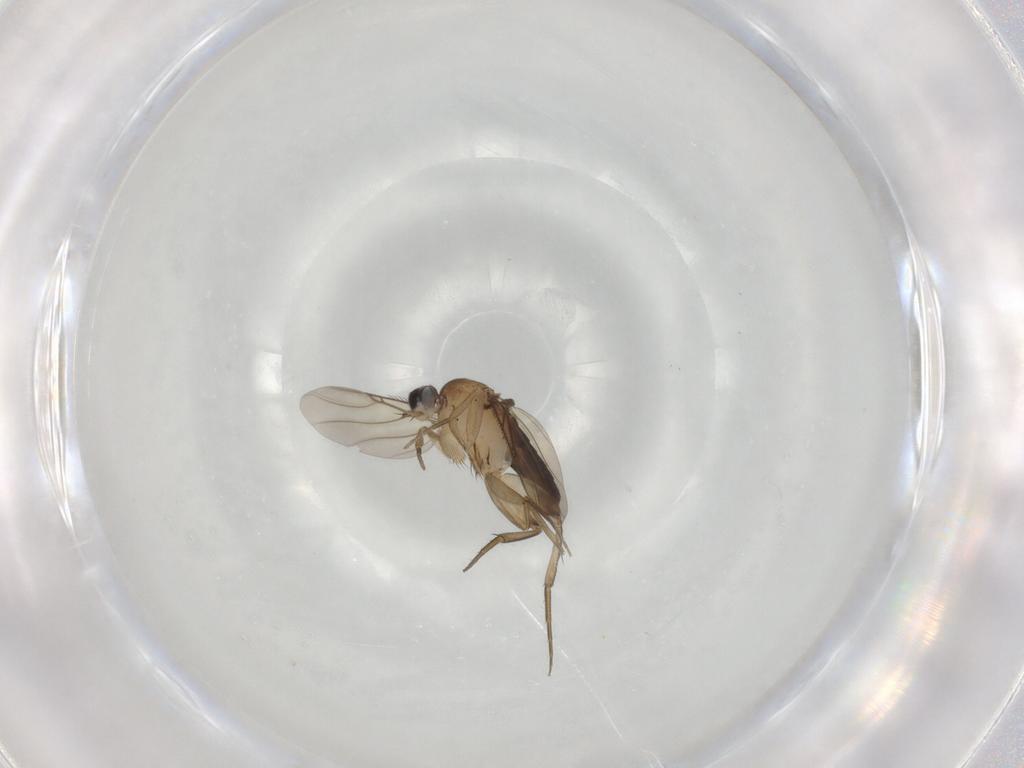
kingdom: Animalia
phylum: Arthropoda
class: Insecta
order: Diptera
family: Phoridae
